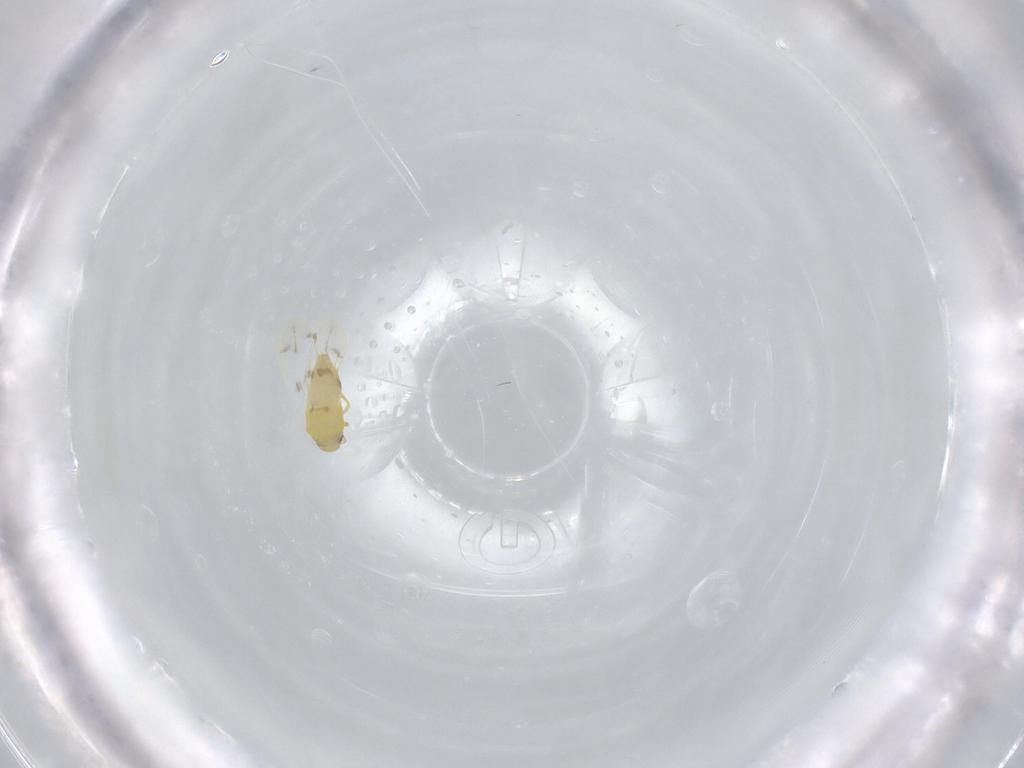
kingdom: Animalia
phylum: Arthropoda
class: Insecta
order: Hemiptera
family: Aleyrodidae
